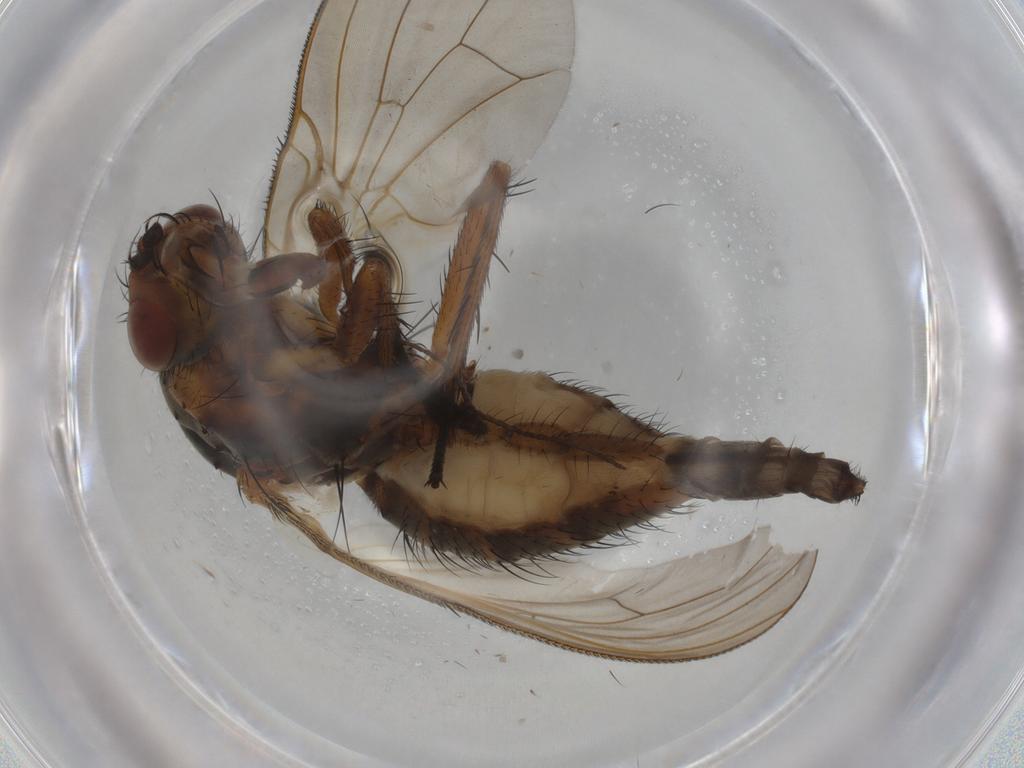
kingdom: Animalia
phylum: Arthropoda
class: Insecta
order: Diptera
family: Anthomyiidae
